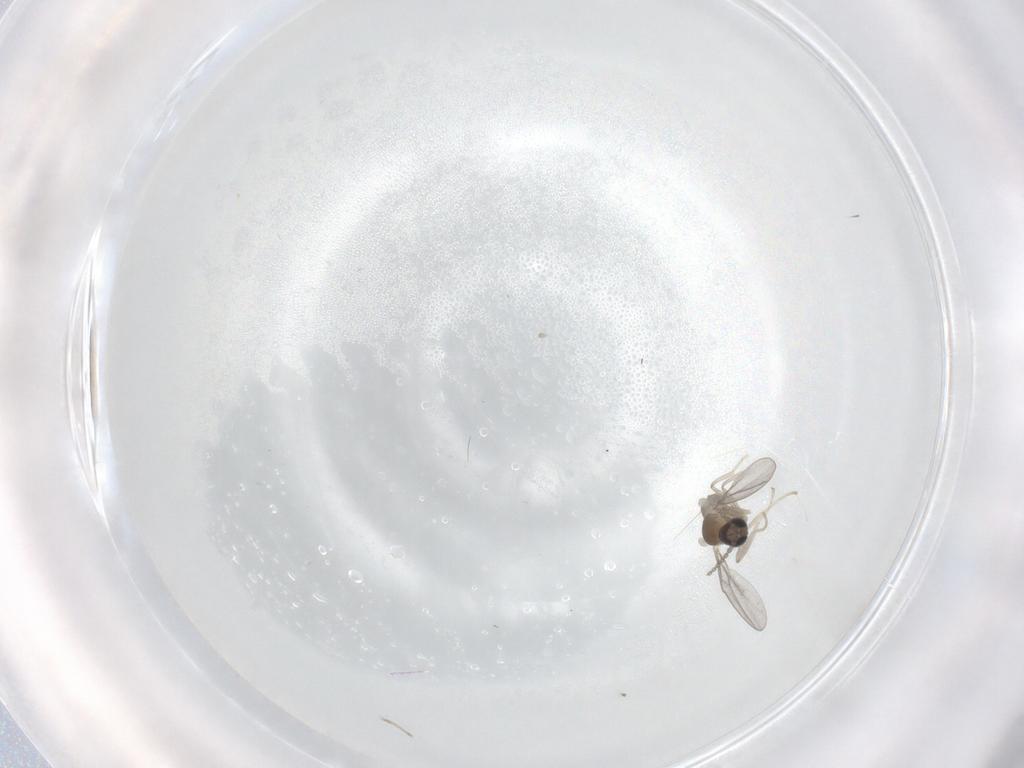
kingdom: Animalia
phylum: Arthropoda
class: Insecta
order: Diptera
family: Cecidomyiidae
